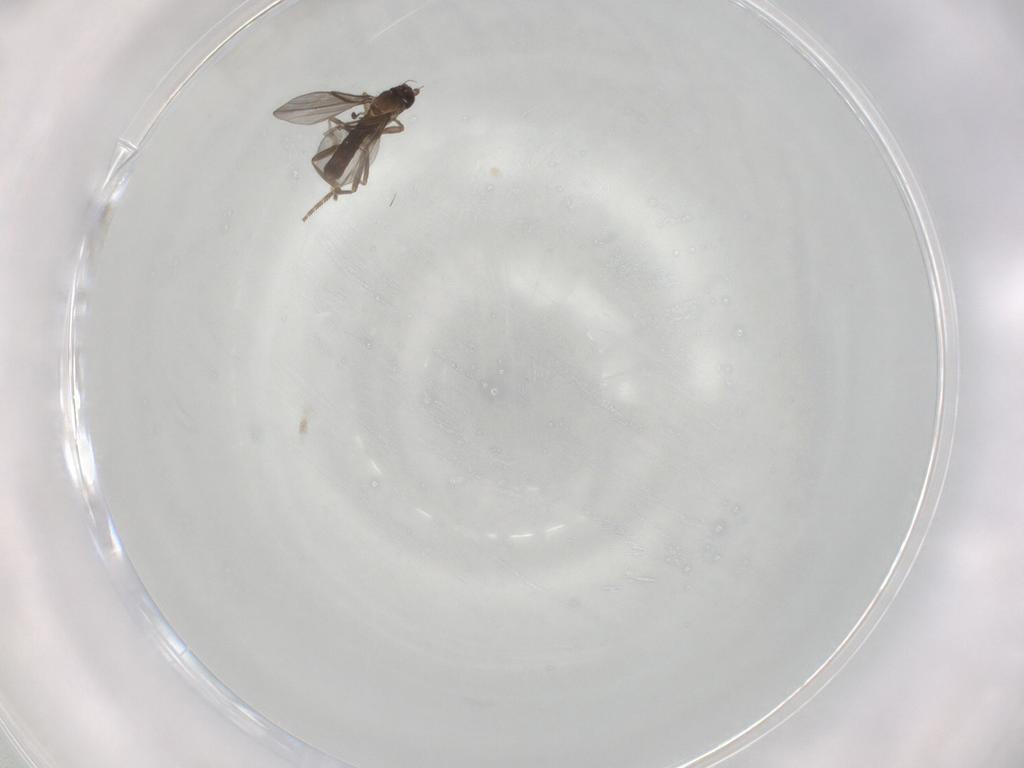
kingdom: Animalia
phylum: Arthropoda
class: Insecta
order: Diptera
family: Phoridae
